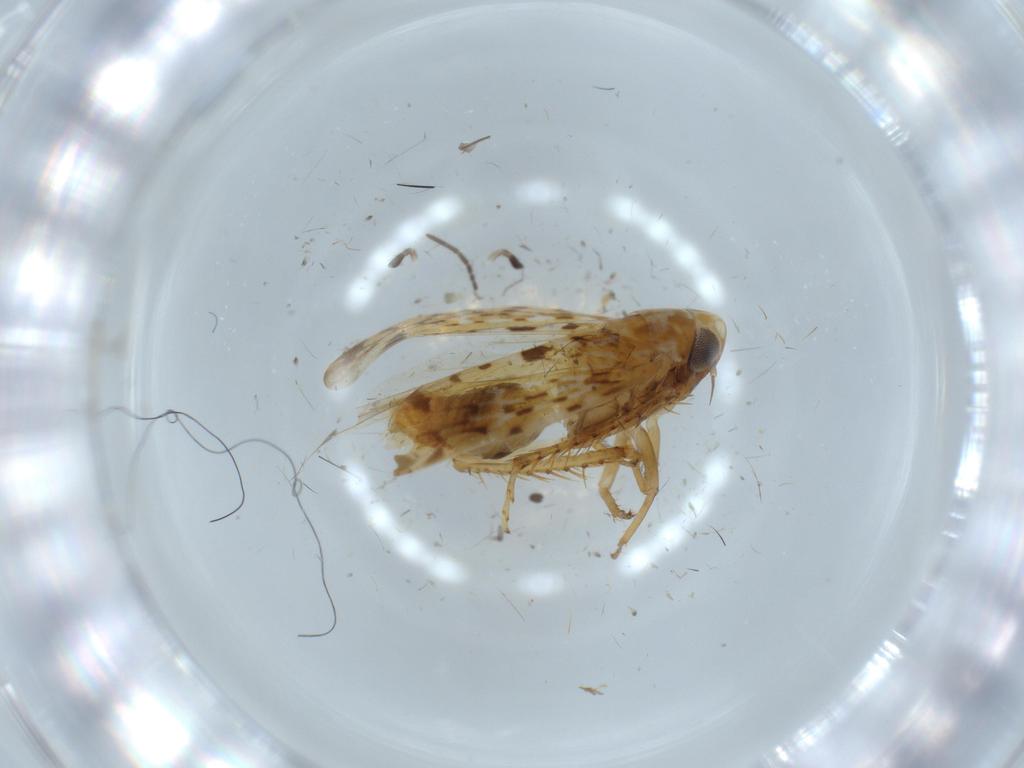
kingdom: Animalia
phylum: Arthropoda
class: Insecta
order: Hemiptera
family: Cicadellidae
